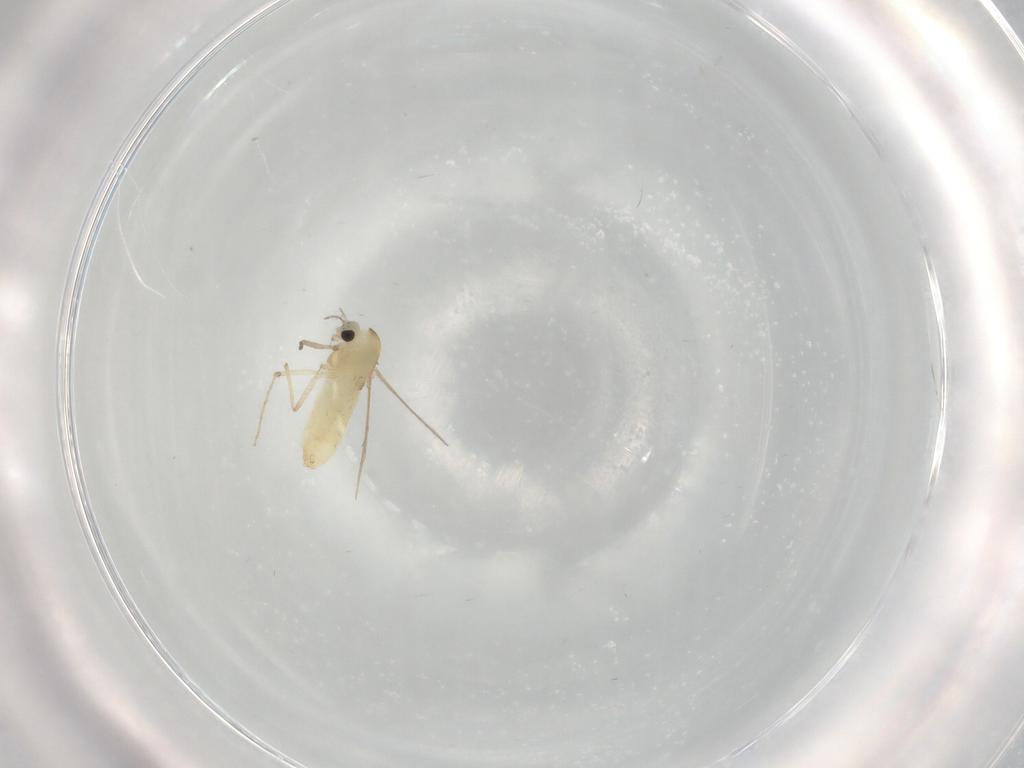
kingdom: Animalia
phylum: Arthropoda
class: Insecta
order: Diptera
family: Chironomidae
